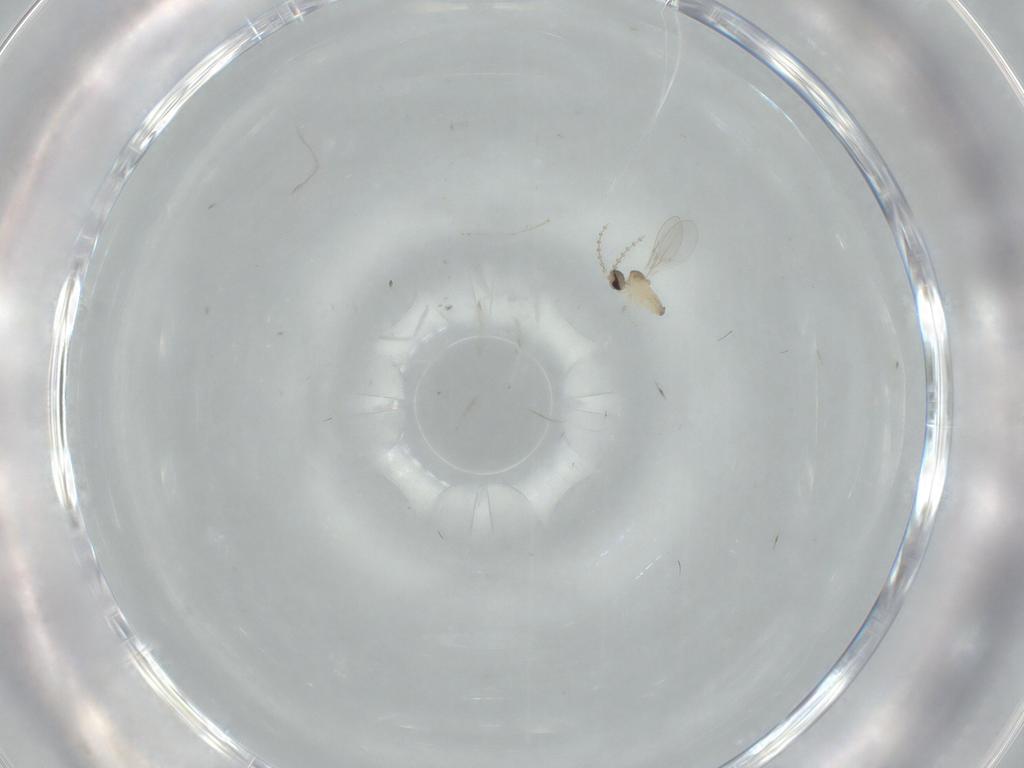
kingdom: Animalia
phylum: Arthropoda
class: Insecta
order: Diptera
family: Cecidomyiidae
